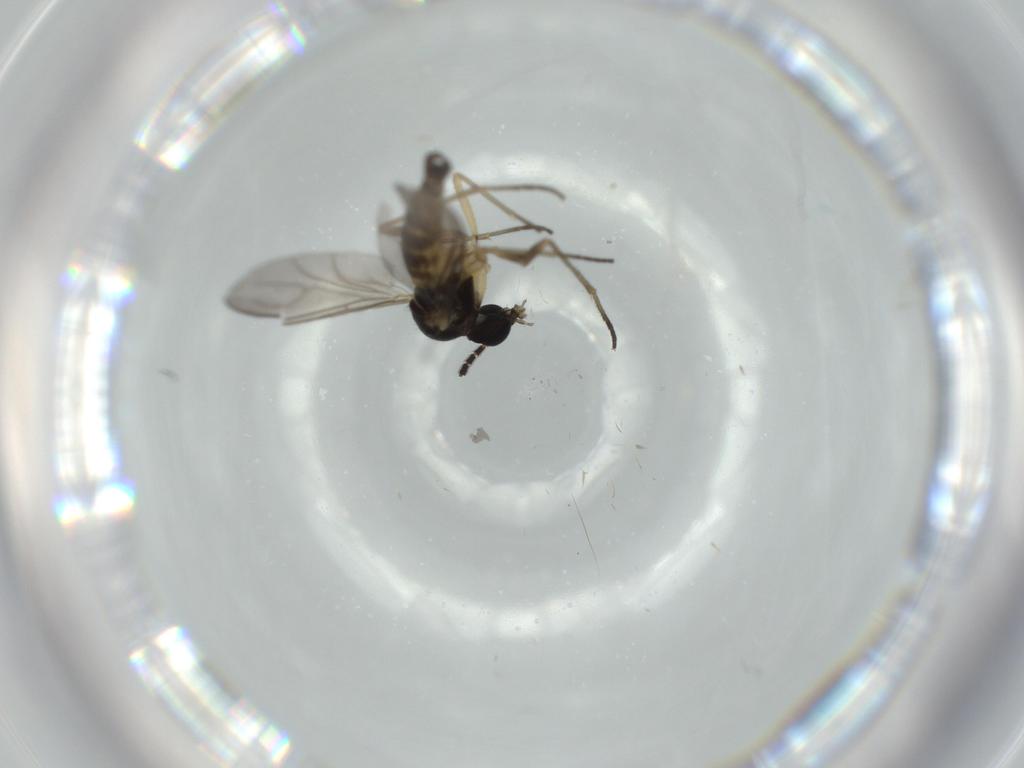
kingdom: Animalia
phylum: Arthropoda
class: Insecta
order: Diptera
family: Sciaridae
